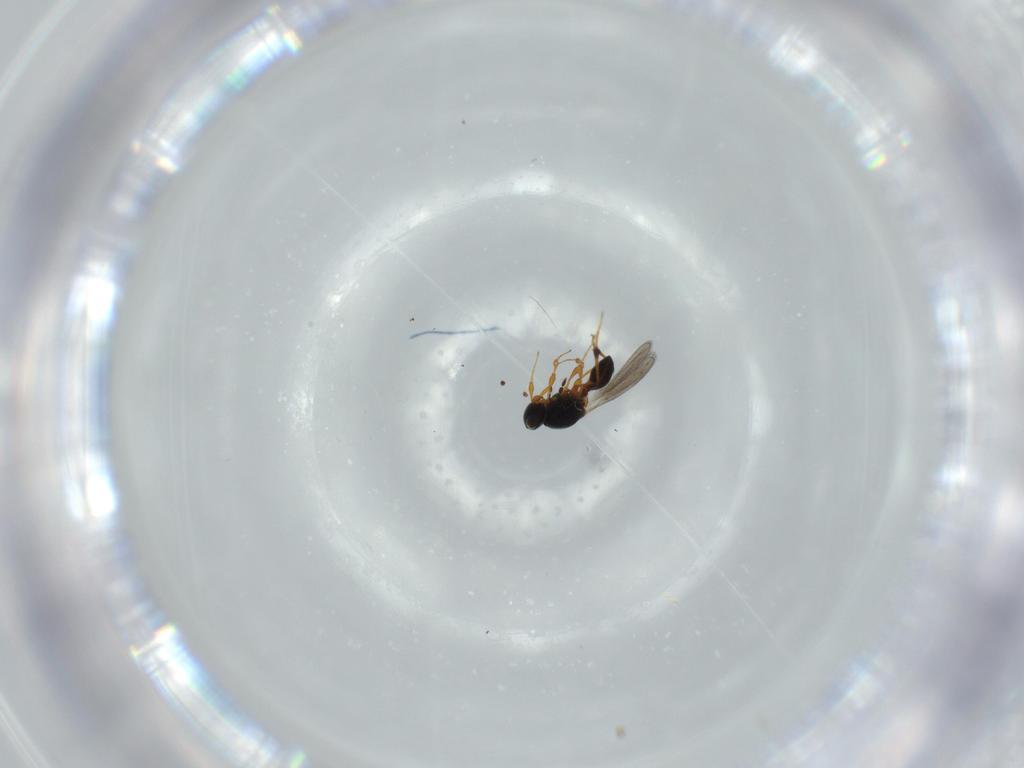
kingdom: Animalia
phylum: Arthropoda
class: Insecta
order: Hymenoptera
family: Platygastridae
